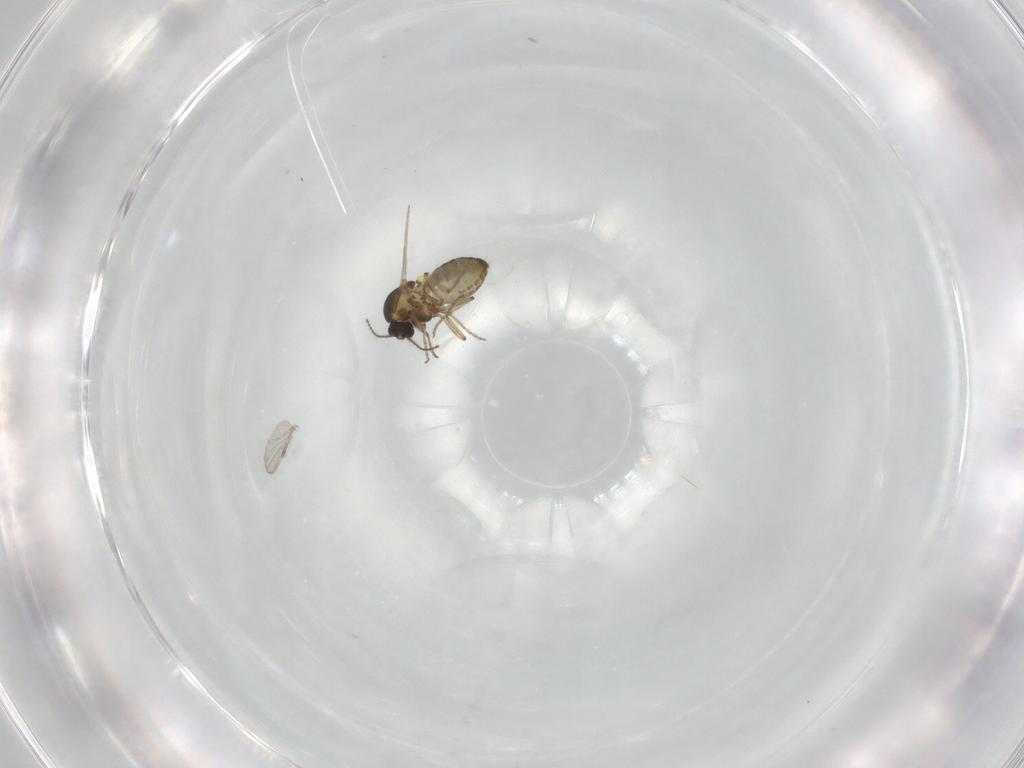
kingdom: Animalia
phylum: Arthropoda
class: Insecta
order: Diptera
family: Ceratopogonidae
